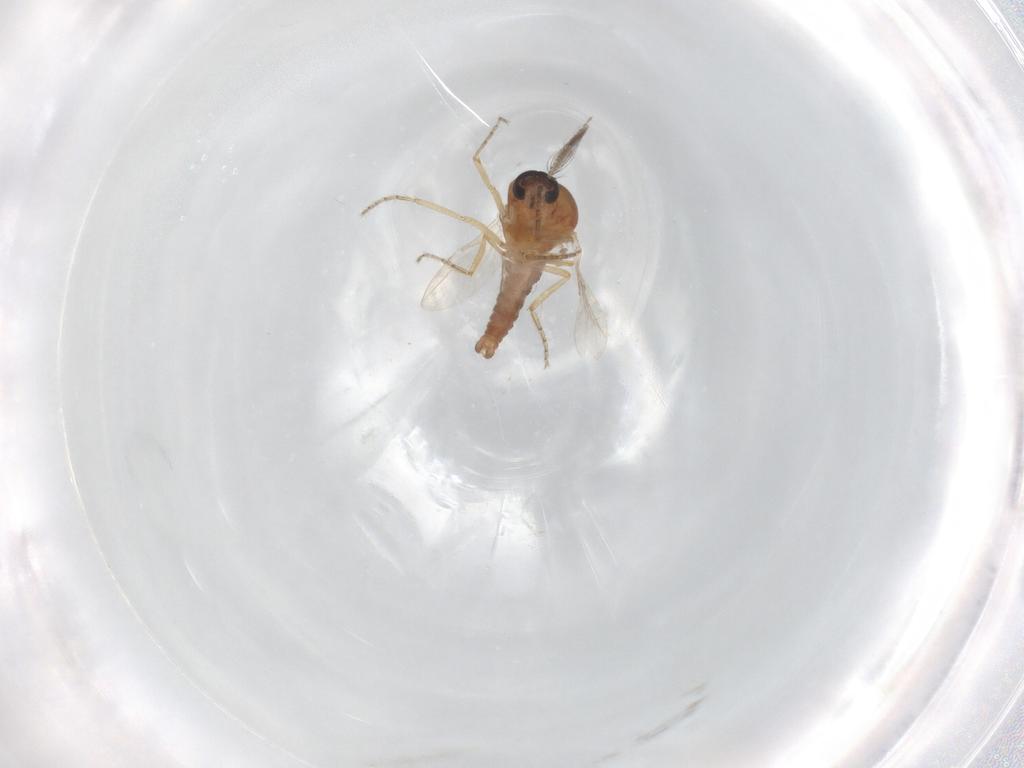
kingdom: Animalia
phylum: Arthropoda
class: Insecta
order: Diptera
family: Ceratopogonidae
